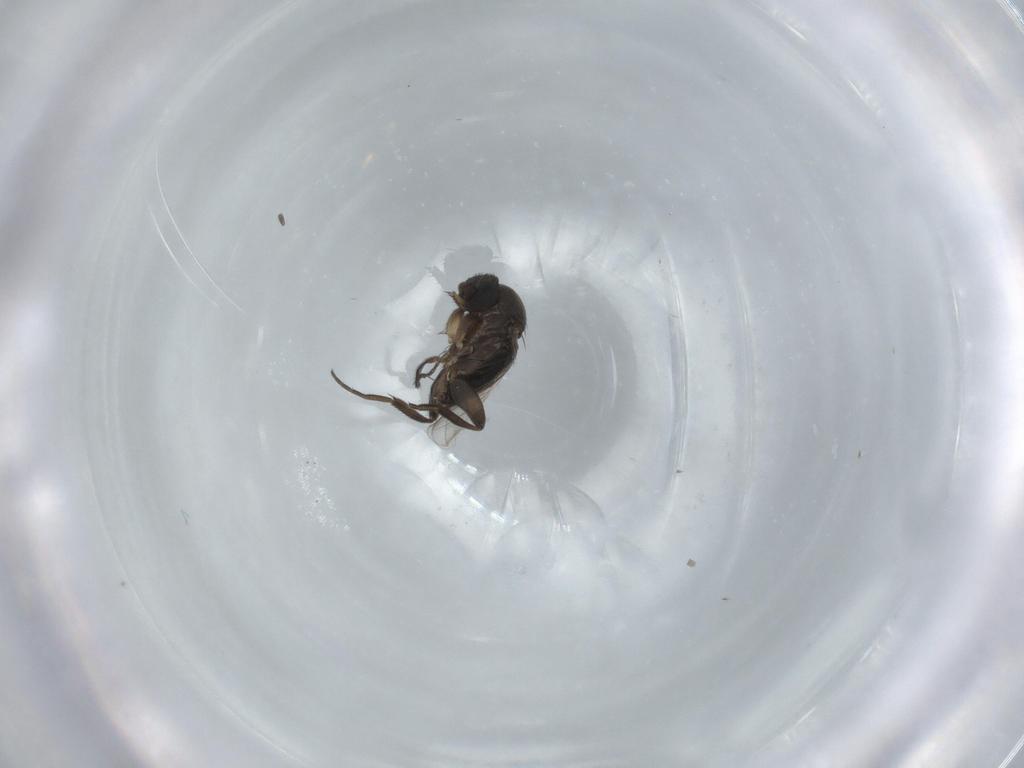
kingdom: Animalia
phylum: Arthropoda
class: Insecta
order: Diptera
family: Phoridae
